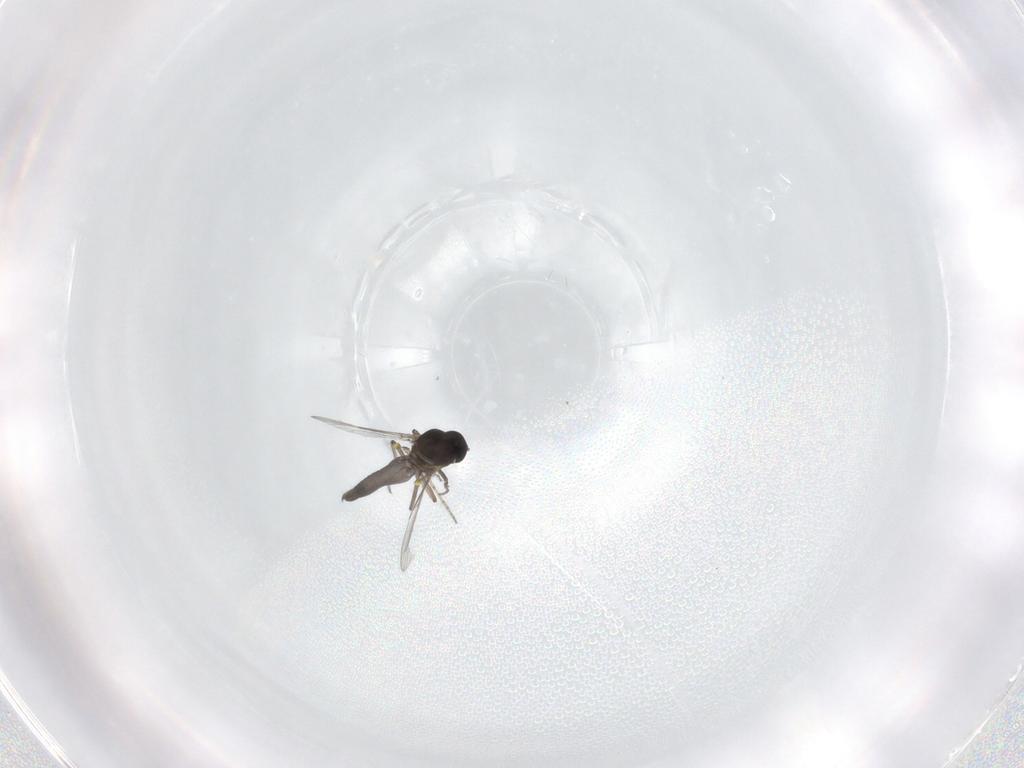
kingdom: Animalia
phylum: Arthropoda
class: Insecta
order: Diptera
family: Ceratopogonidae
